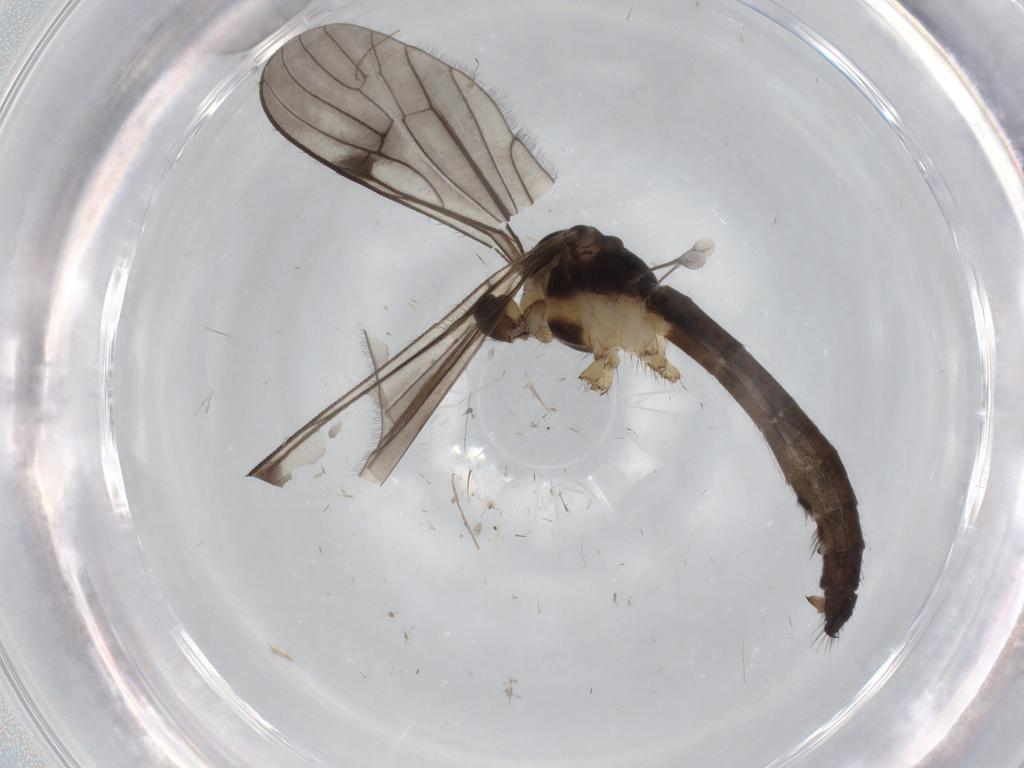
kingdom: Animalia
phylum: Arthropoda
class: Insecta
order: Diptera
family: Limoniidae
